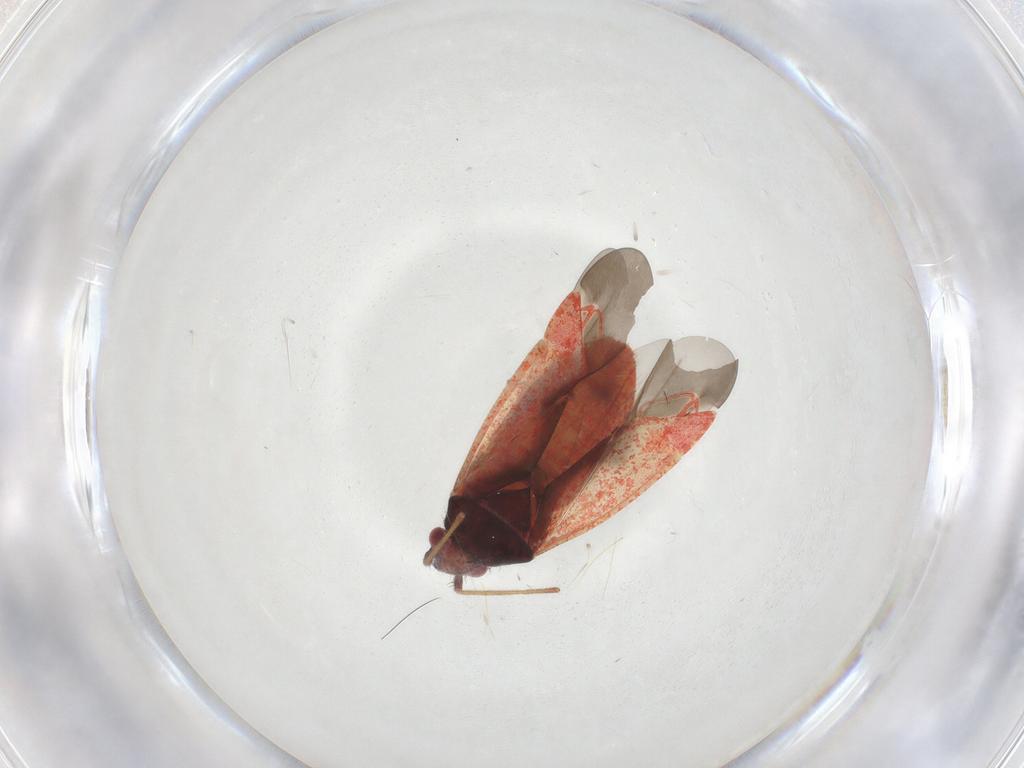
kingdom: Animalia
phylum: Arthropoda
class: Insecta
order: Hemiptera
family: Miridae
